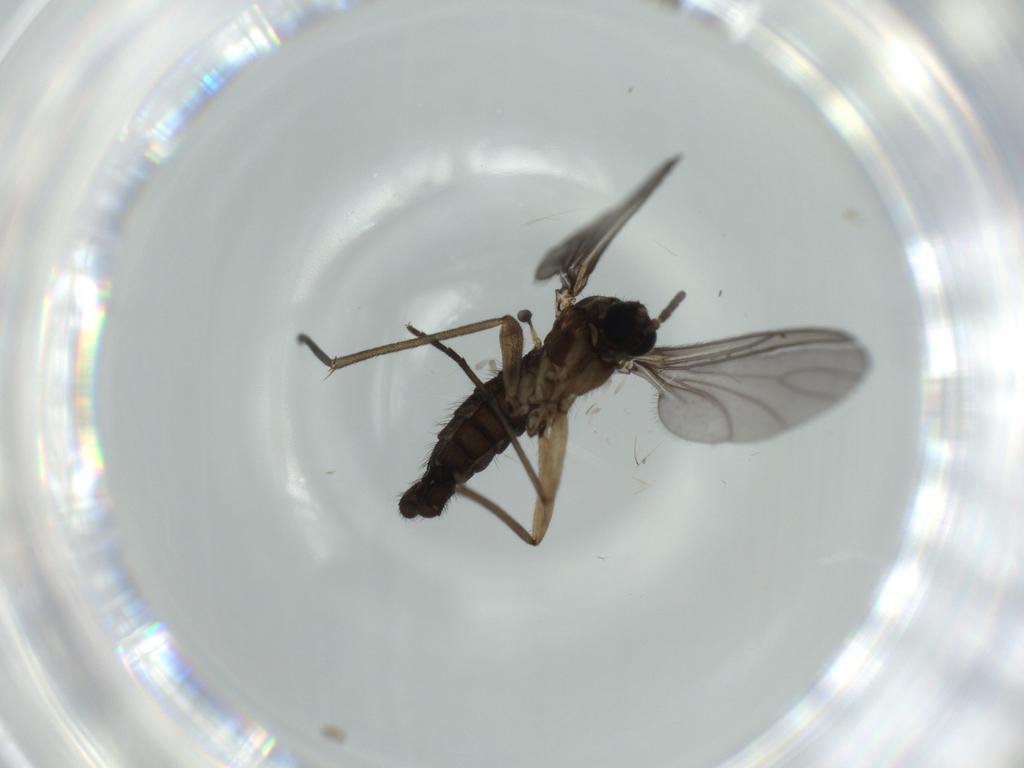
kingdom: Animalia
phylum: Arthropoda
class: Insecta
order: Diptera
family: Sciaridae
